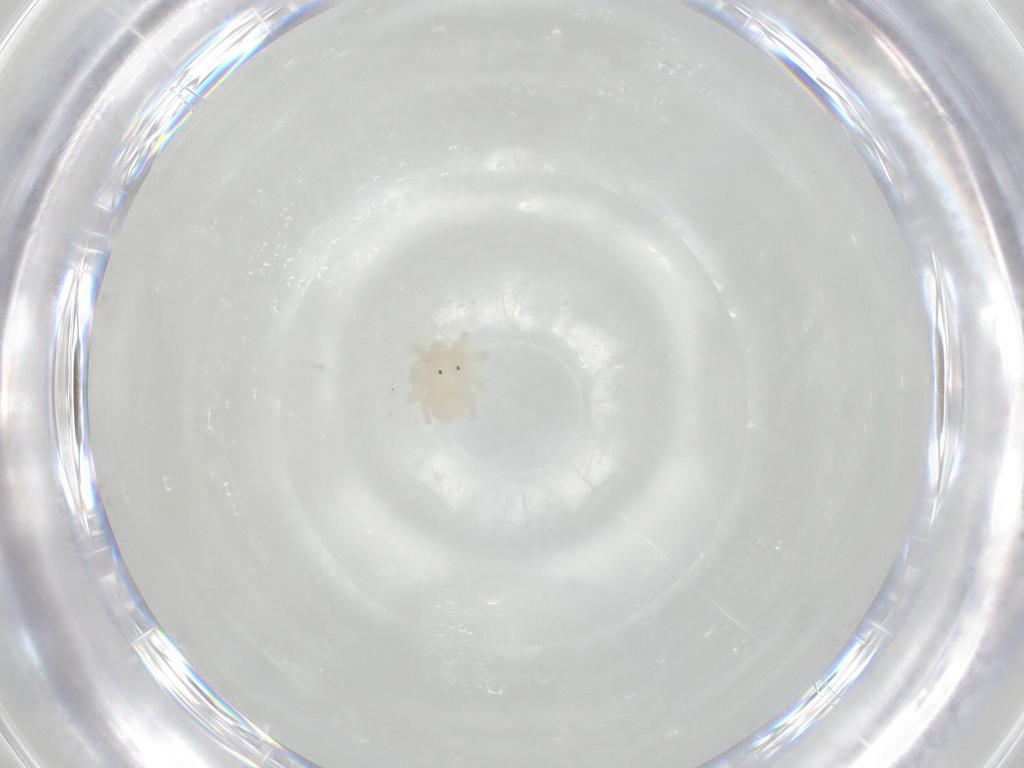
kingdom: Animalia
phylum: Arthropoda
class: Arachnida
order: Trombidiformes
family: Anystidae
